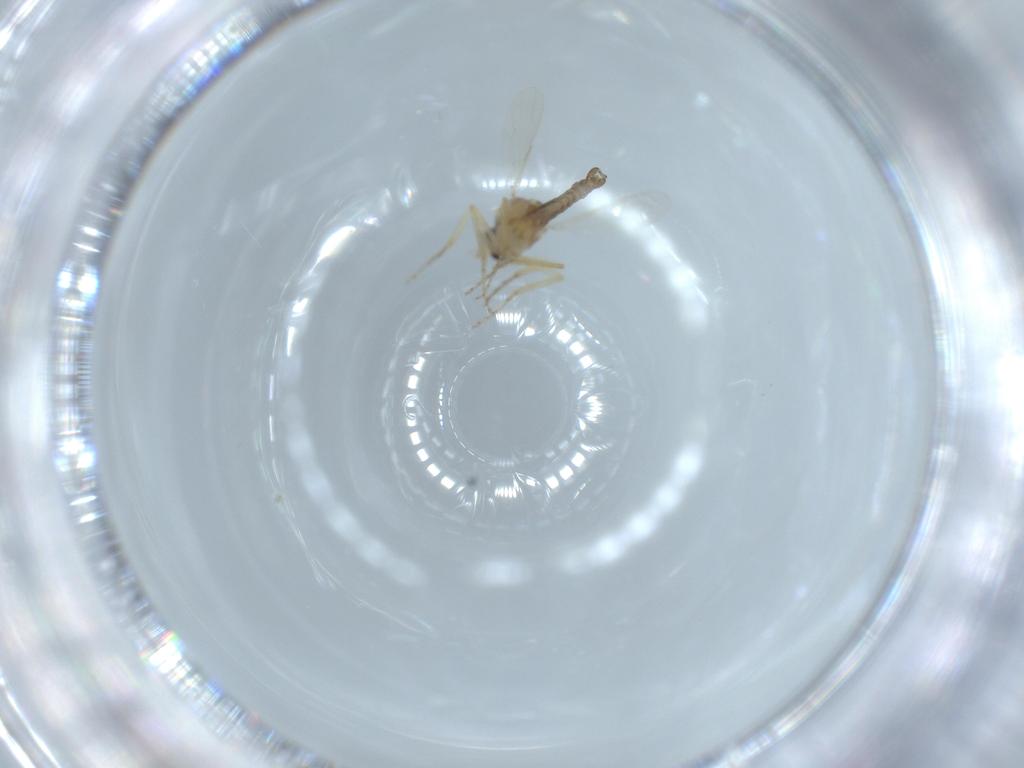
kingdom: Animalia
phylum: Arthropoda
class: Insecta
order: Diptera
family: Ceratopogonidae
